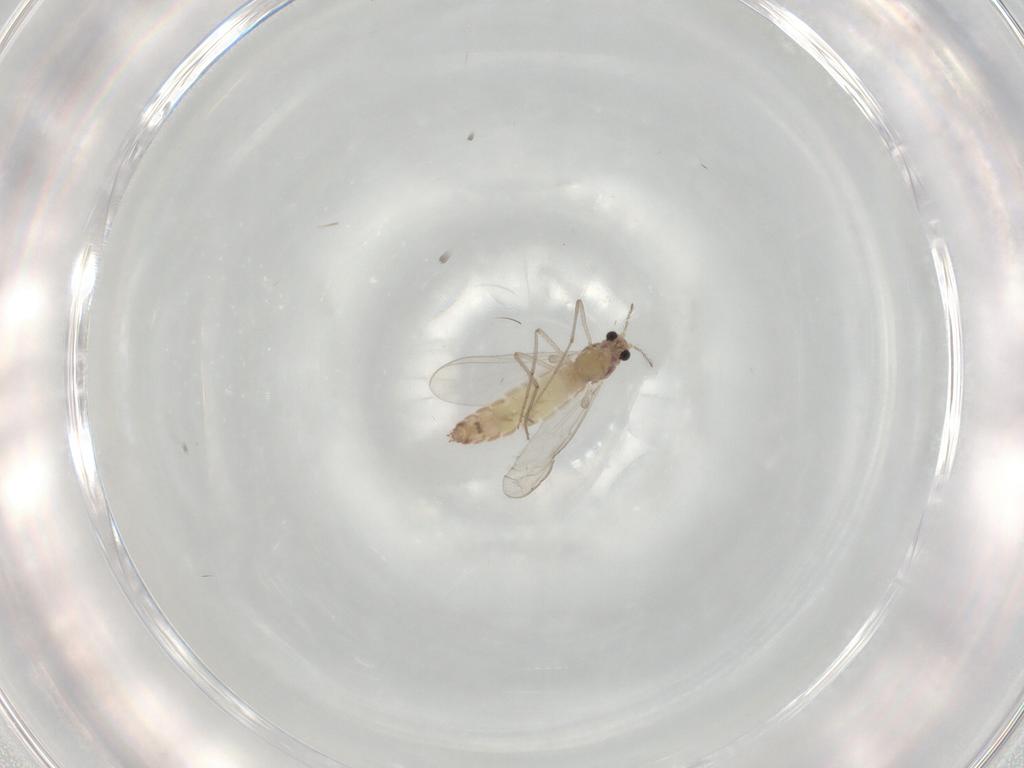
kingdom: Animalia
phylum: Arthropoda
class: Insecta
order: Diptera
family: Chironomidae
